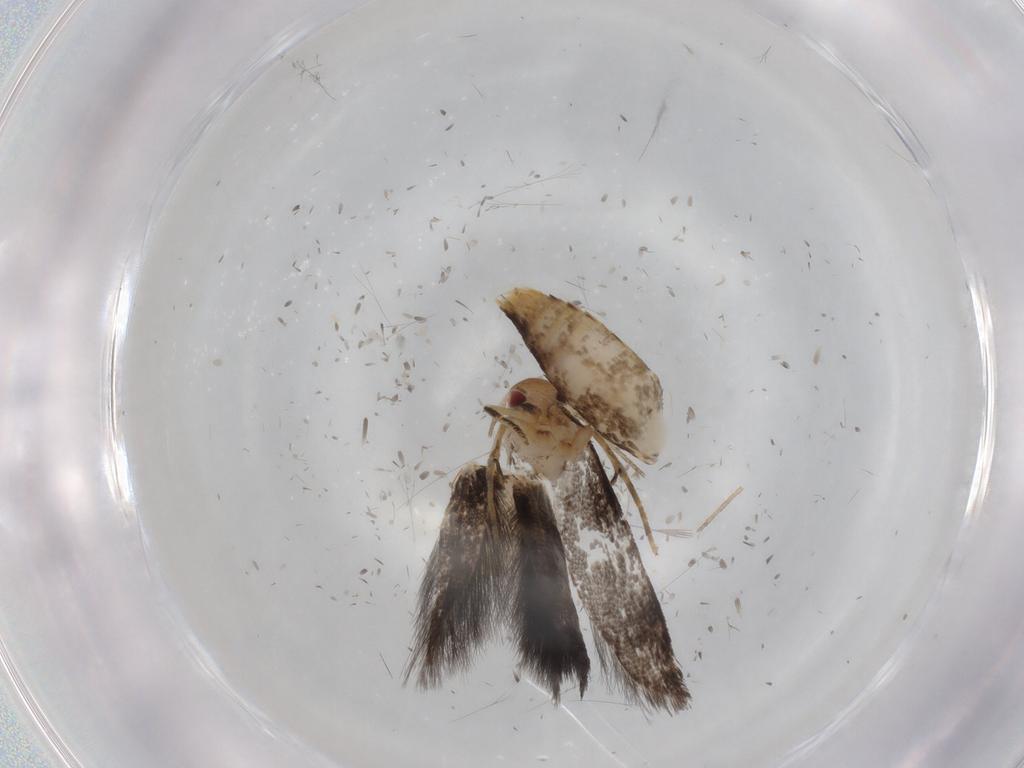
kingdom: Animalia
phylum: Arthropoda
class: Insecta
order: Lepidoptera
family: Momphidae
